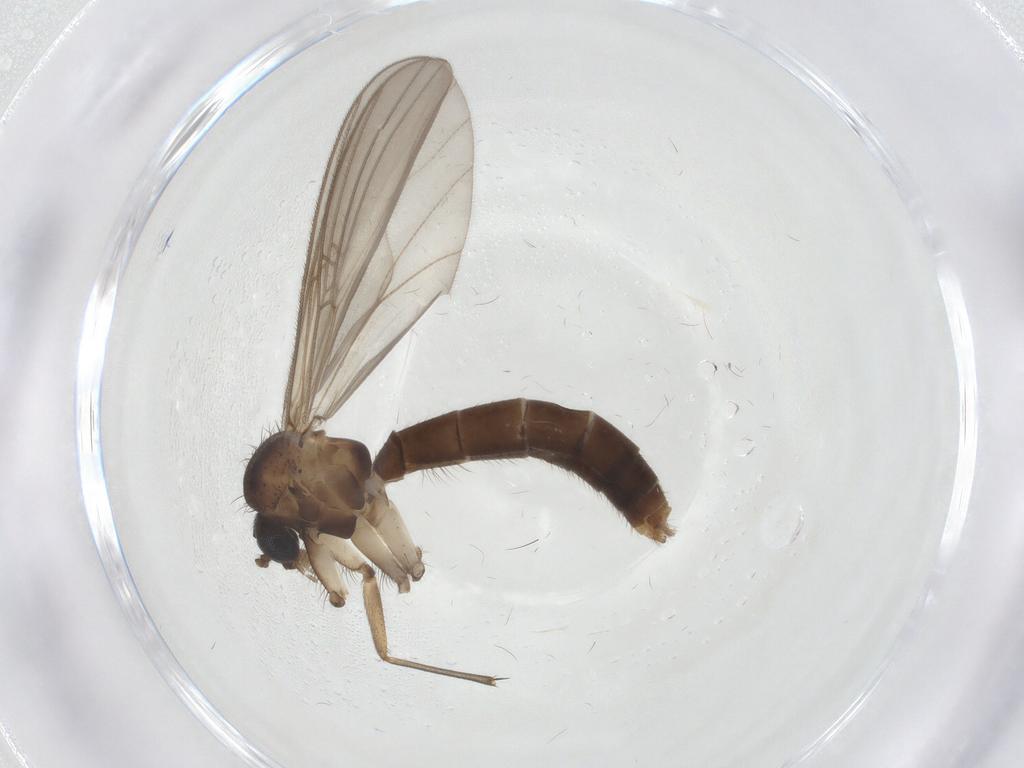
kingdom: Animalia
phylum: Arthropoda
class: Insecta
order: Diptera
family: Mycetophilidae
